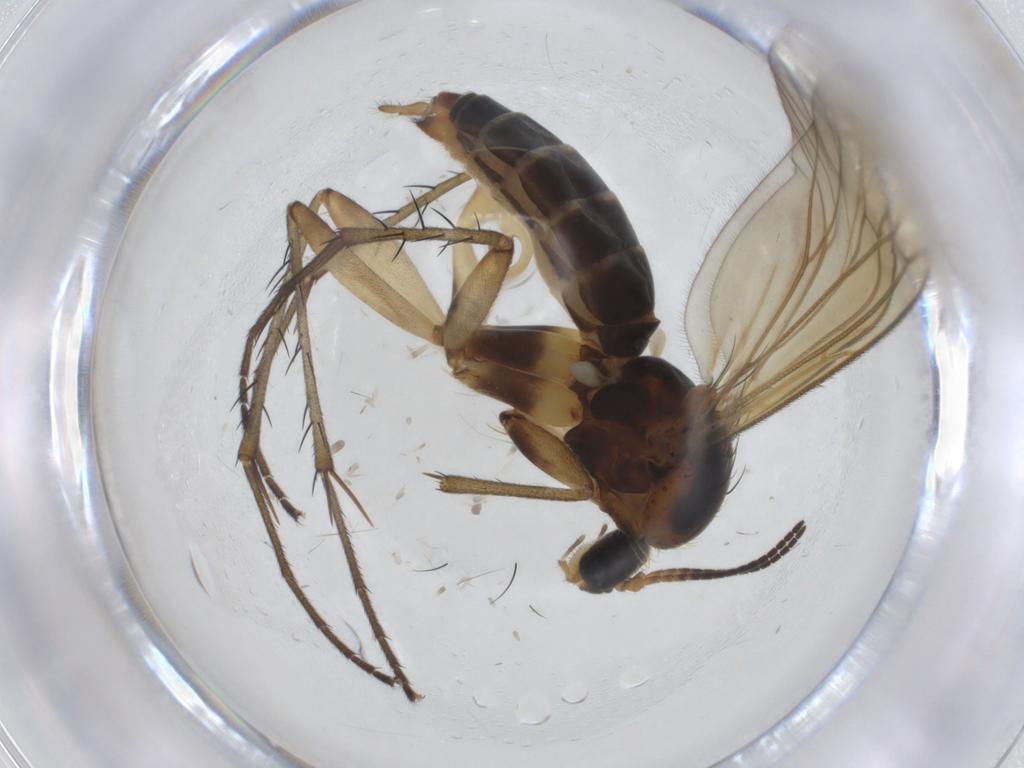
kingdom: Animalia
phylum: Arthropoda
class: Insecta
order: Diptera
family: Mycetophilidae
